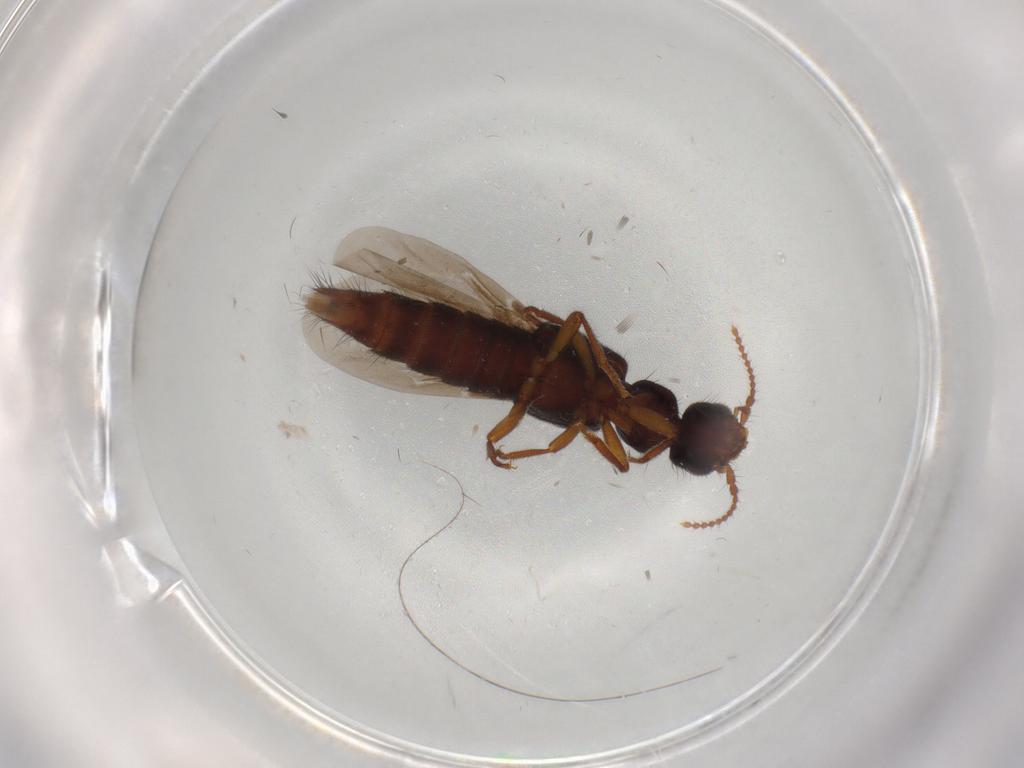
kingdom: Animalia
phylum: Arthropoda
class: Insecta
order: Coleoptera
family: Staphylinidae
